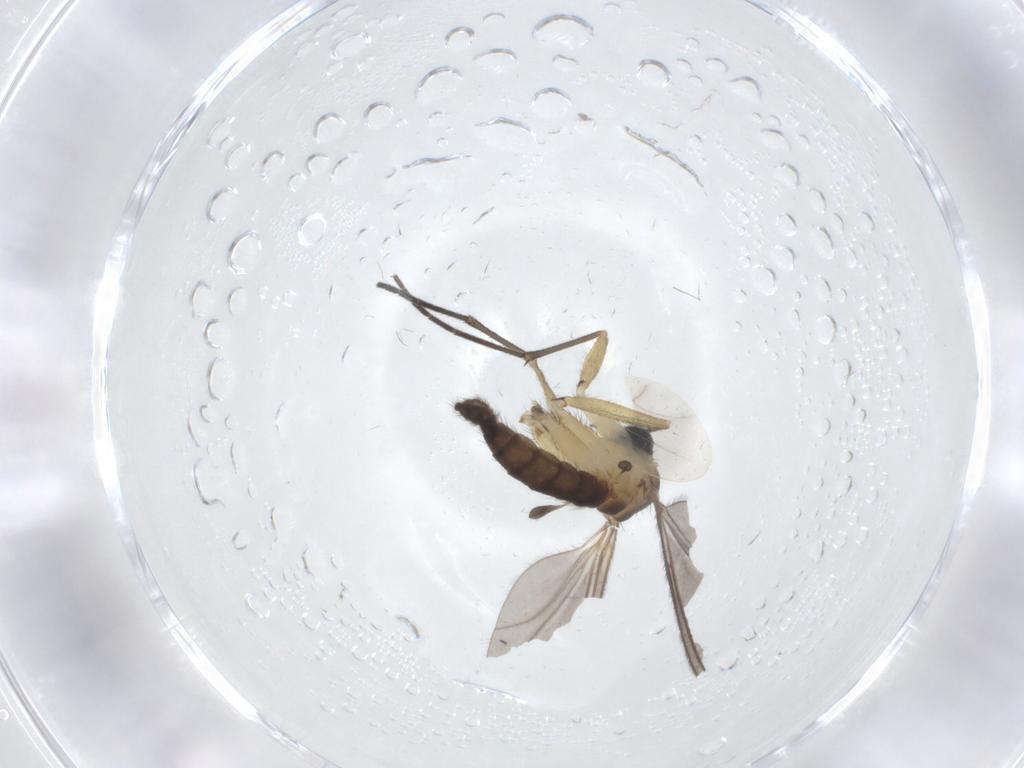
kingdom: Animalia
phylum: Arthropoda
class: Insecta
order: Diptera
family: Sciaridae
